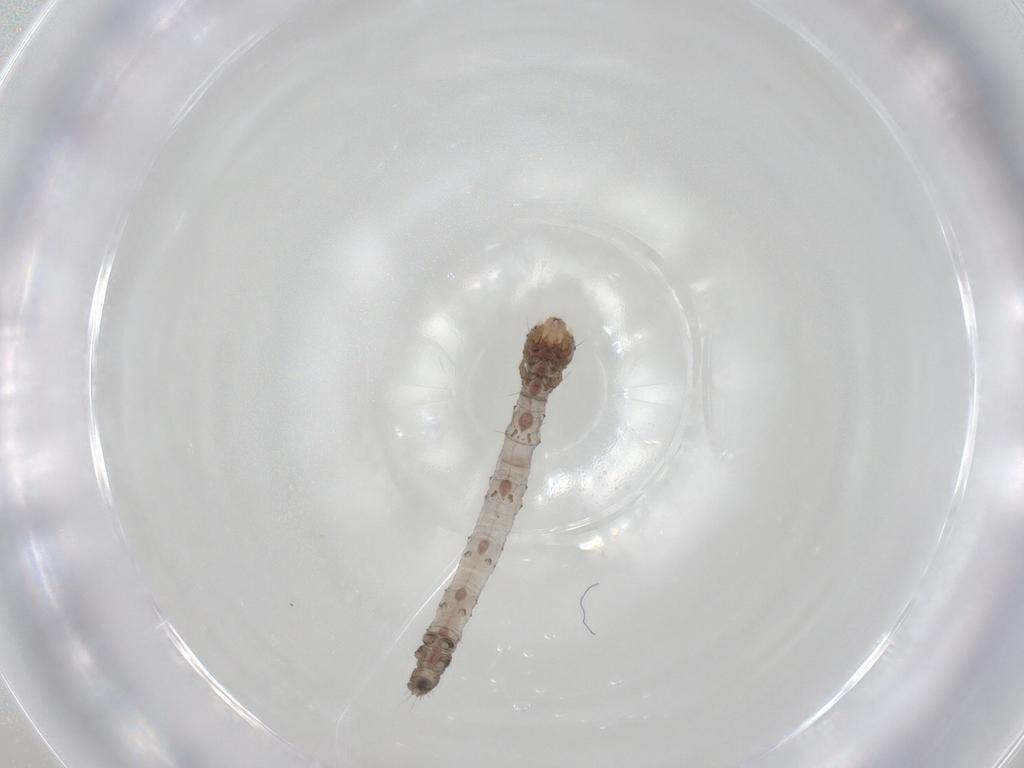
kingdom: Animalia
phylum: Arthropoda
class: Insecta
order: Lepidoptera
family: Erebidae
